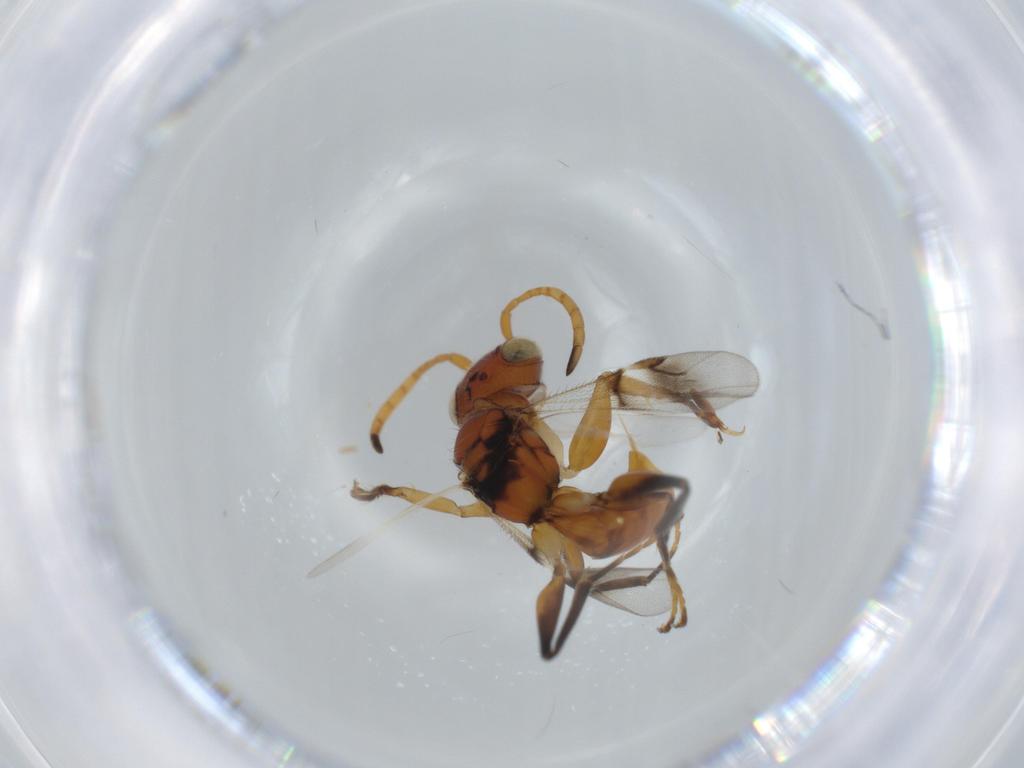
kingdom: Animalia
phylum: Arthropoda
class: Insecta
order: Hymenoptera
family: Dryinidae
